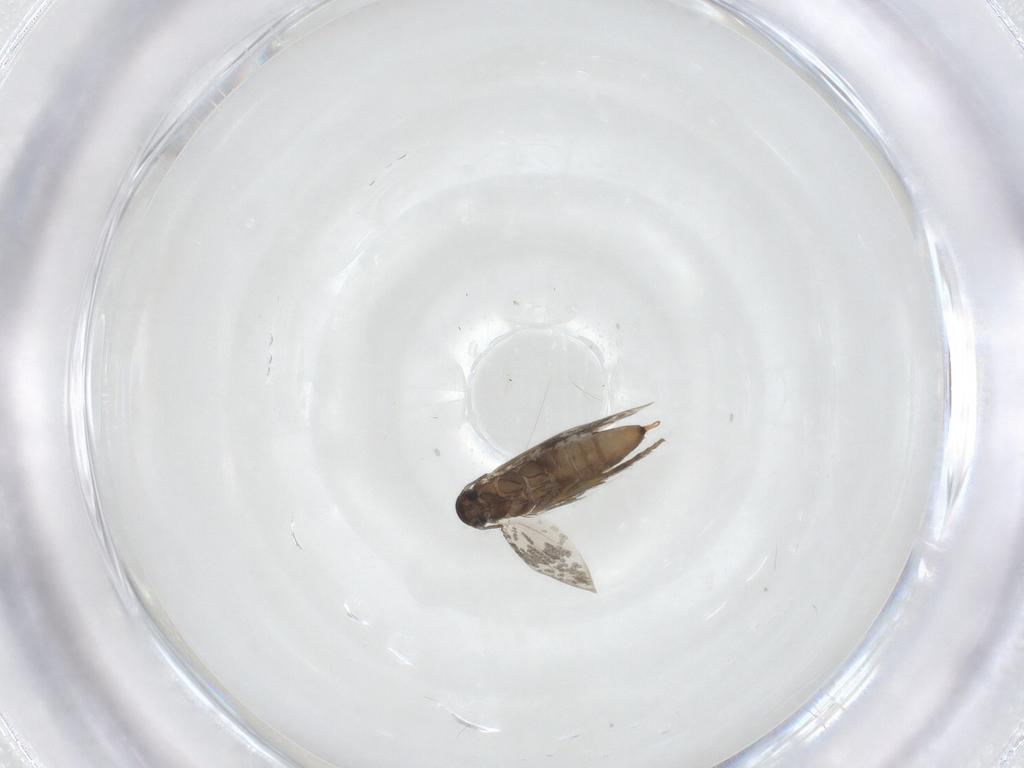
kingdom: Animalia
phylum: Arthropoda
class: Insecta
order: Lepidoptera
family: Heliozelidae
